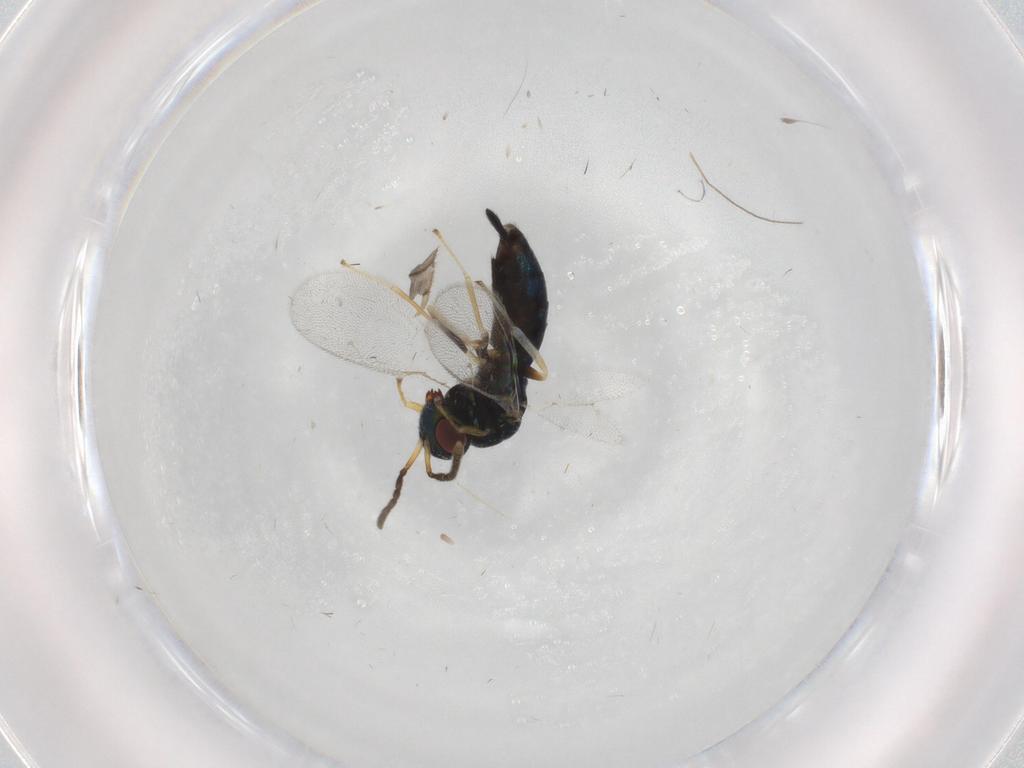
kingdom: Animalia
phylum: Arthropoda
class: Insecta
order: Hymenoptera
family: Pteromalidae
